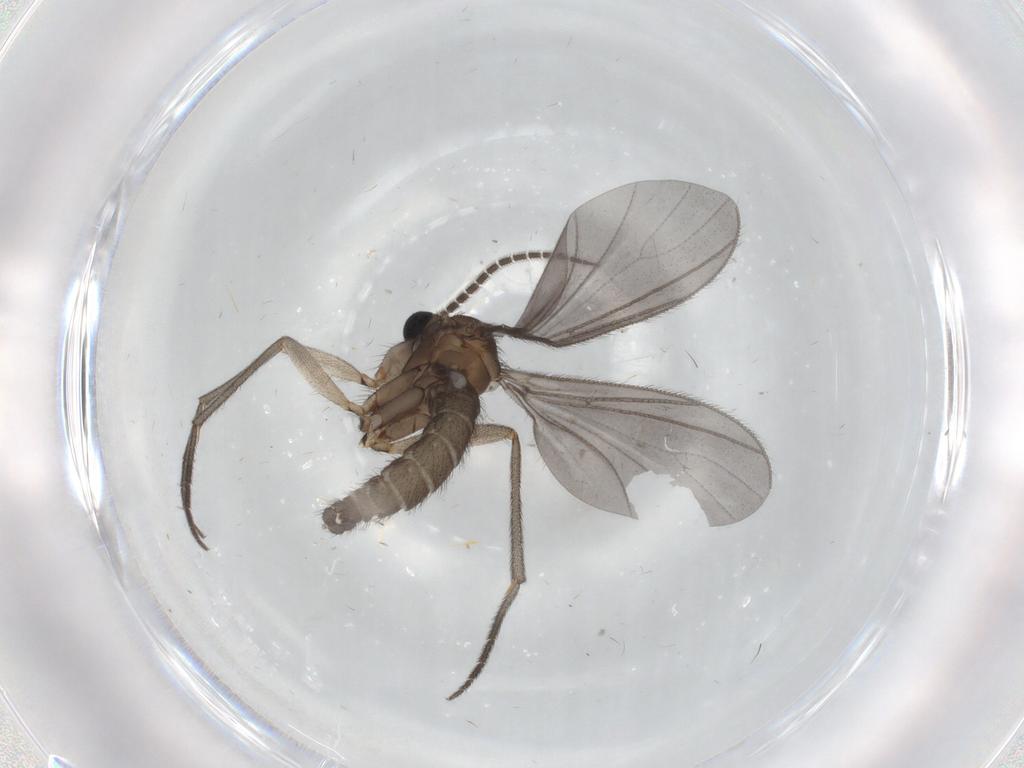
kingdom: Animalia
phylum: Arthropoda
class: Insecta
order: Diptera
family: Sciaridae
